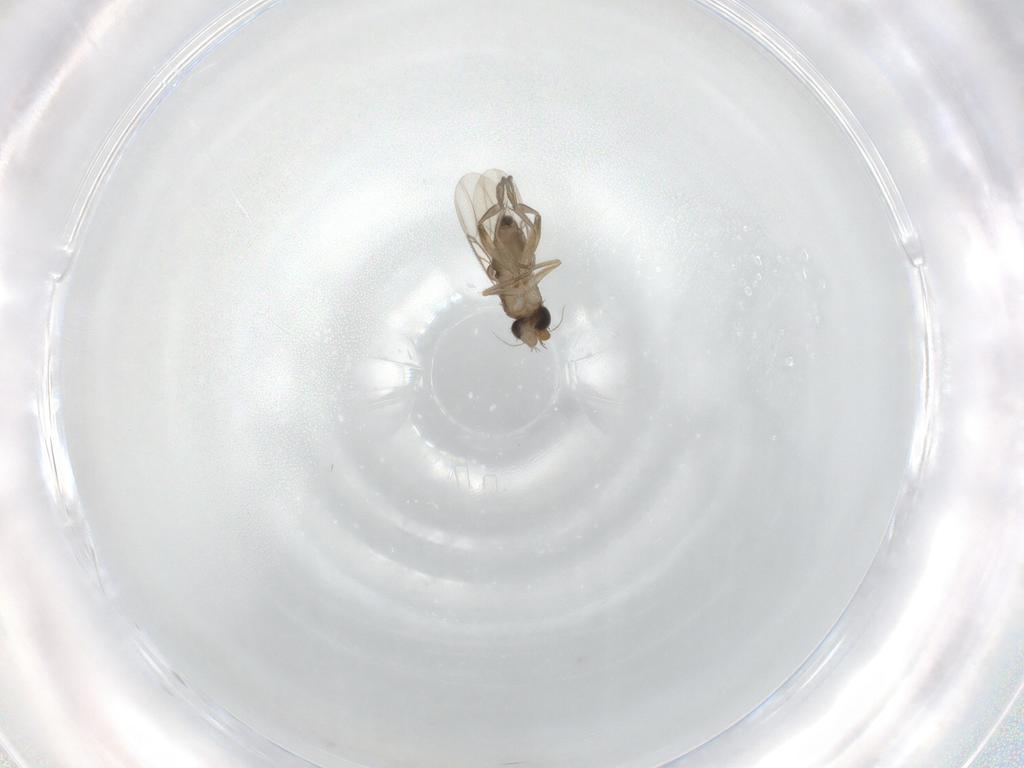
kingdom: Animalia
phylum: Arthropoda
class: Insecta
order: Diptera
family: Phoridae
